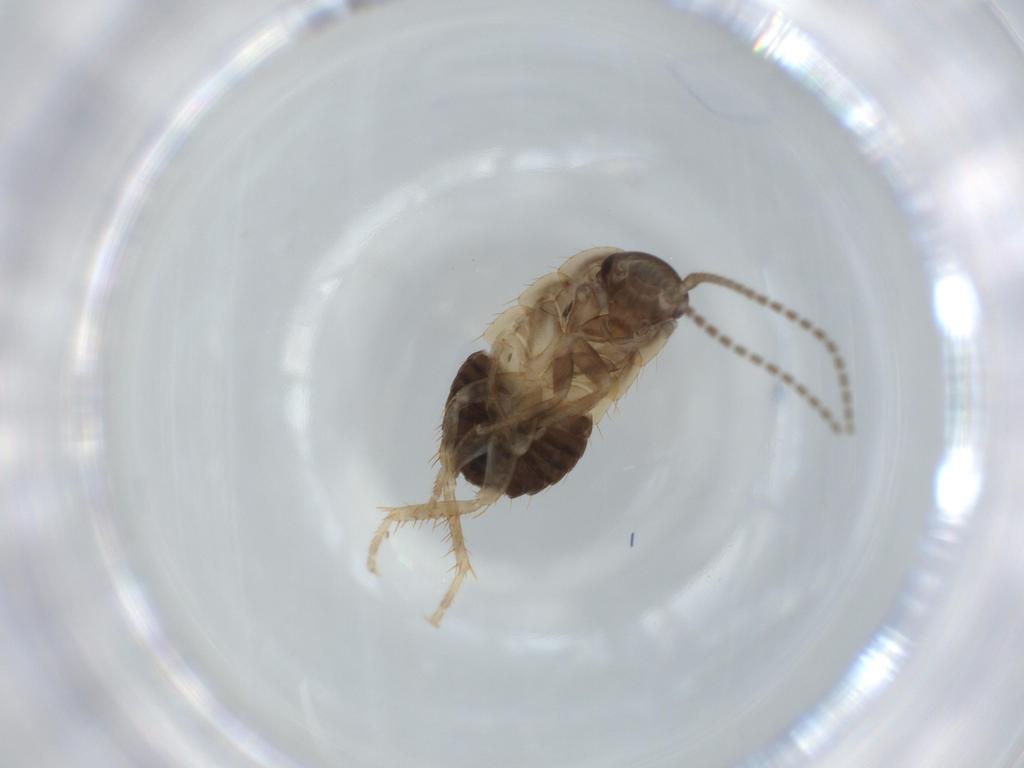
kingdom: Animalia
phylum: Arthropoda
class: Insecta
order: Blattodea
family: Ectobiidae
